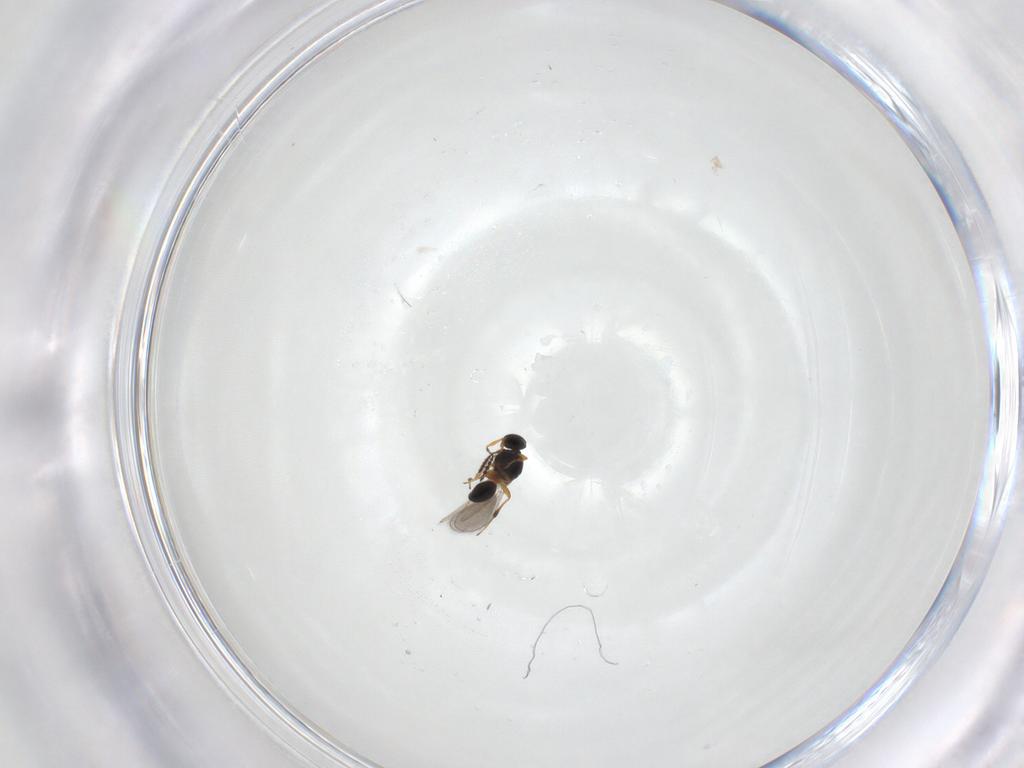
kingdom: Animalia
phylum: Arthropoda
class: Insecta
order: Hymenoptera
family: Platygastridae
